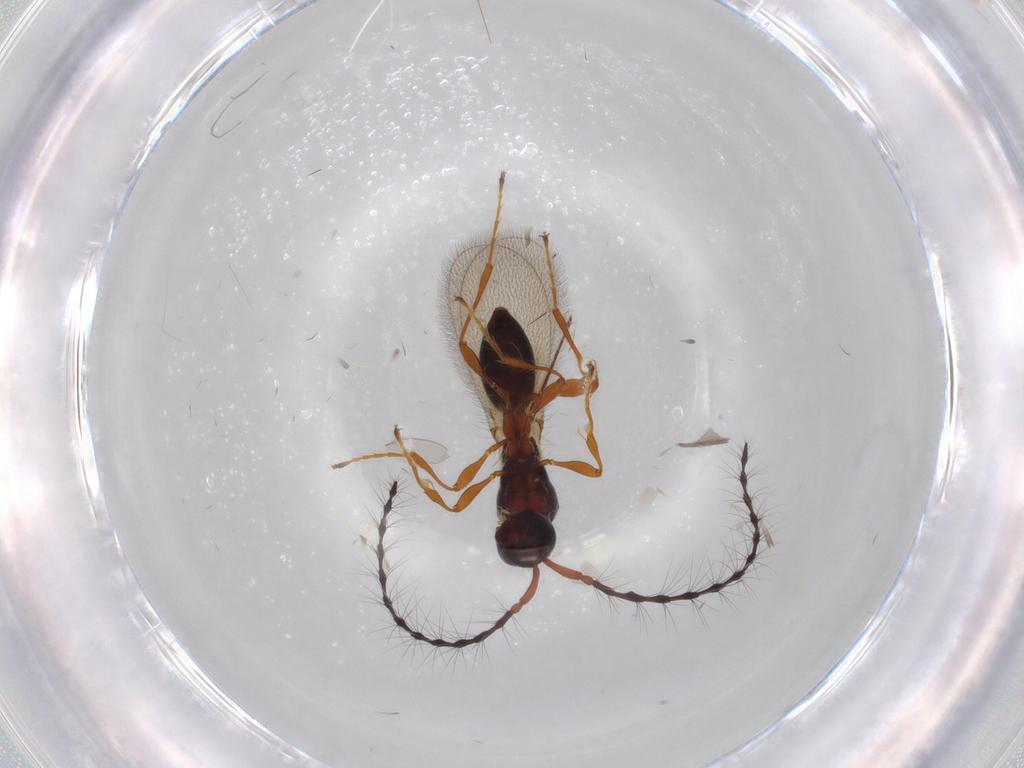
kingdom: Animalia
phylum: Arthropoda
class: Insecta
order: Hymenoptera
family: Diapriidae
